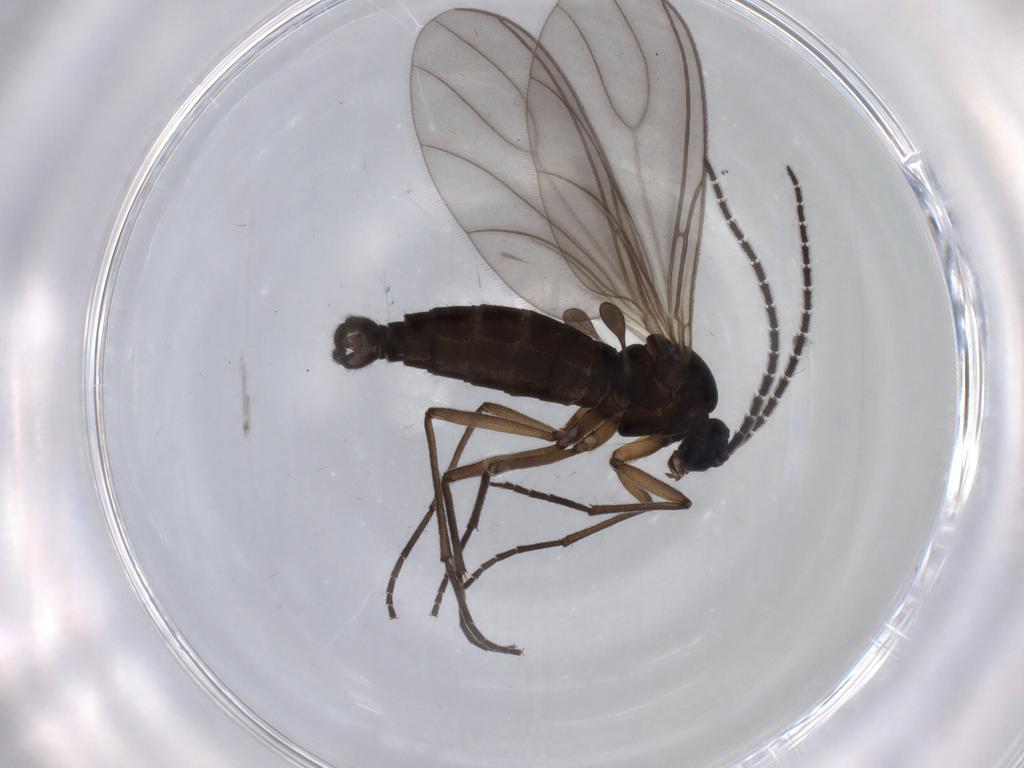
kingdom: Animalia
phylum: Arthropoda
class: Insecta
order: Diptera
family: Sciaridae
